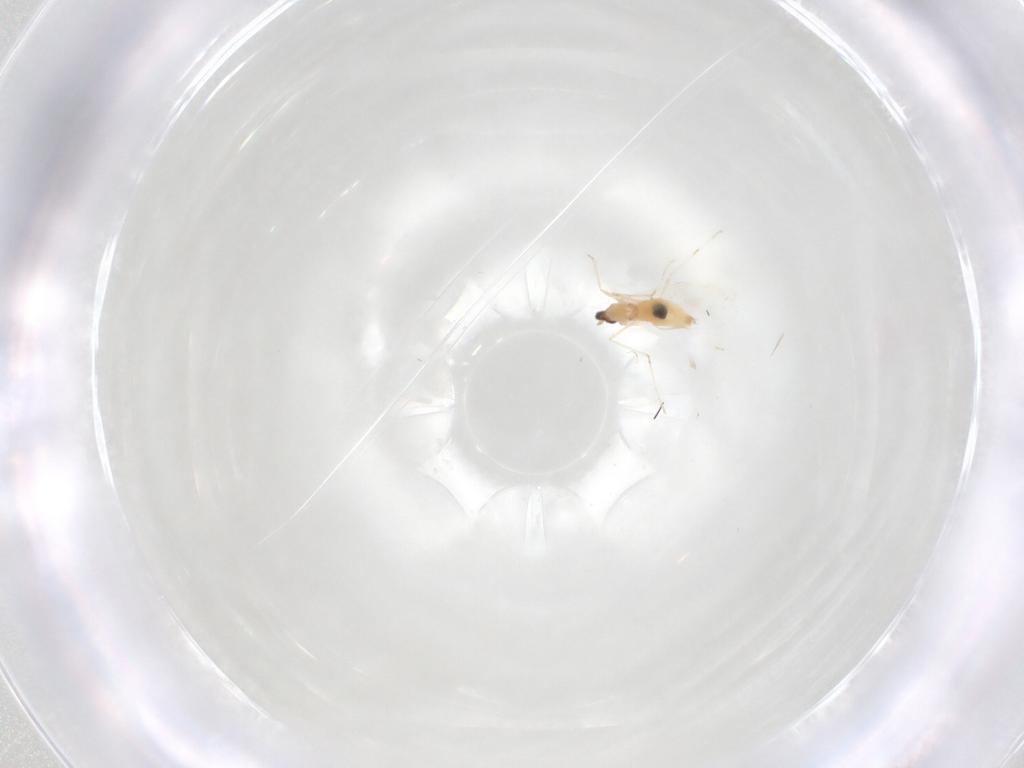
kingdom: Animalia
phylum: Arthropoda
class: Insecta
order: Diptera
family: Cecidomyiidae
